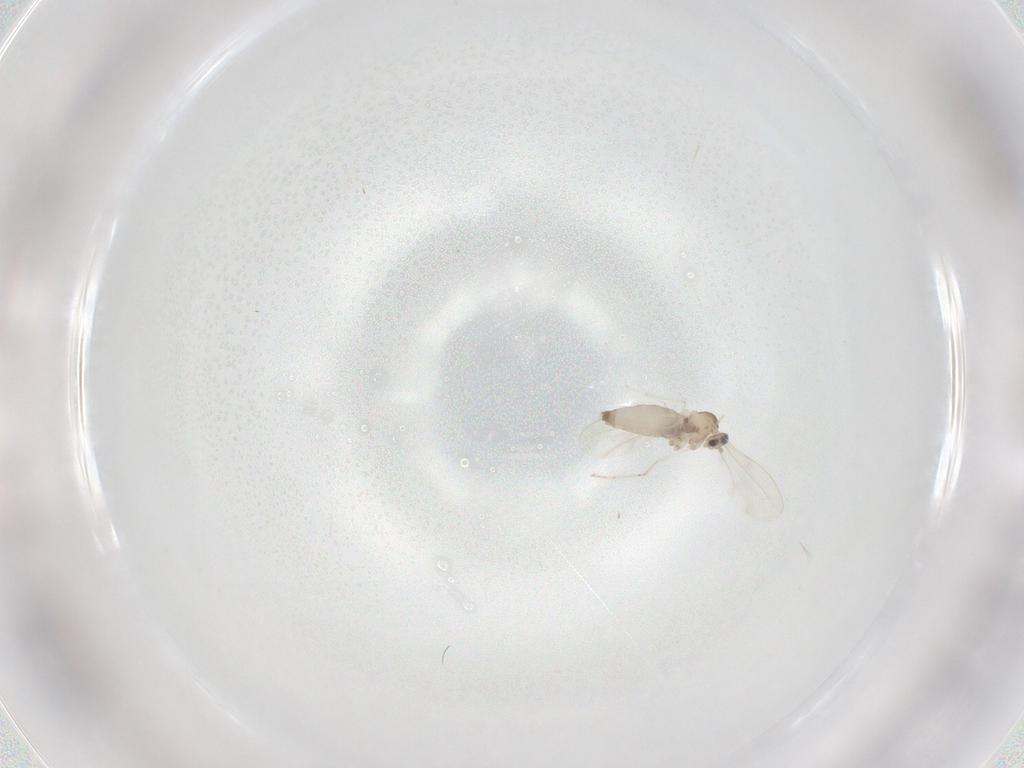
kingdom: Animalia
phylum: Arthropoda
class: Insecta
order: Diptera
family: Cecidomyiidae
